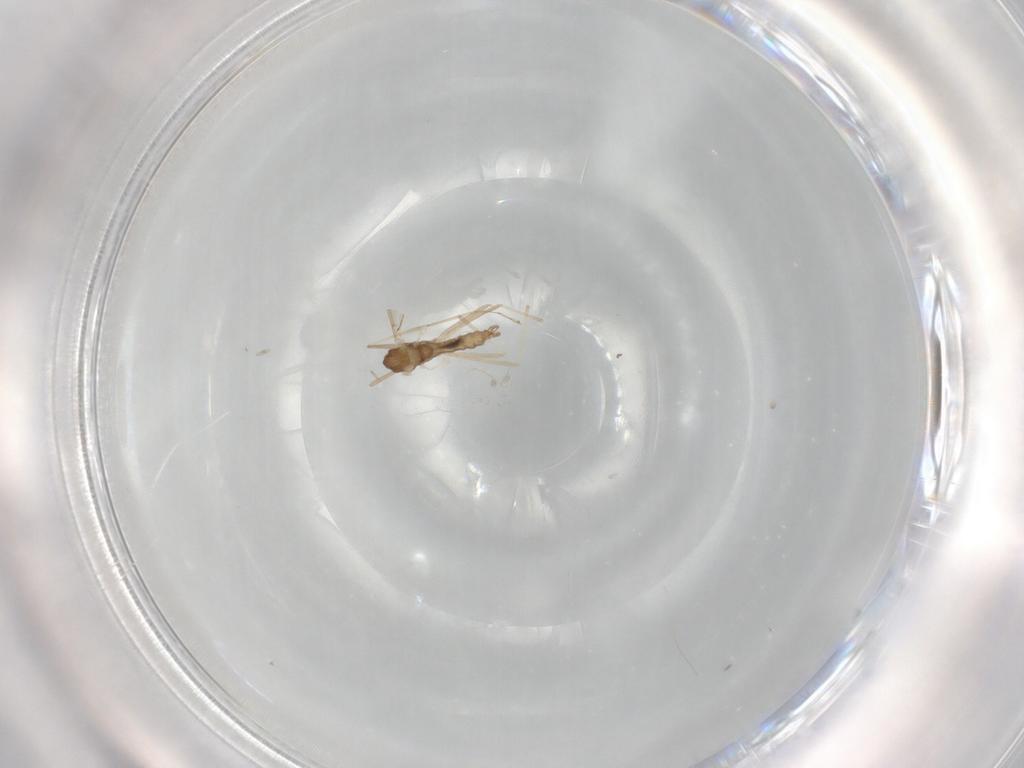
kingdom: Animalia
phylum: Arthropoda
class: Insecta
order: Diptera
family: Cecidomyiidae
